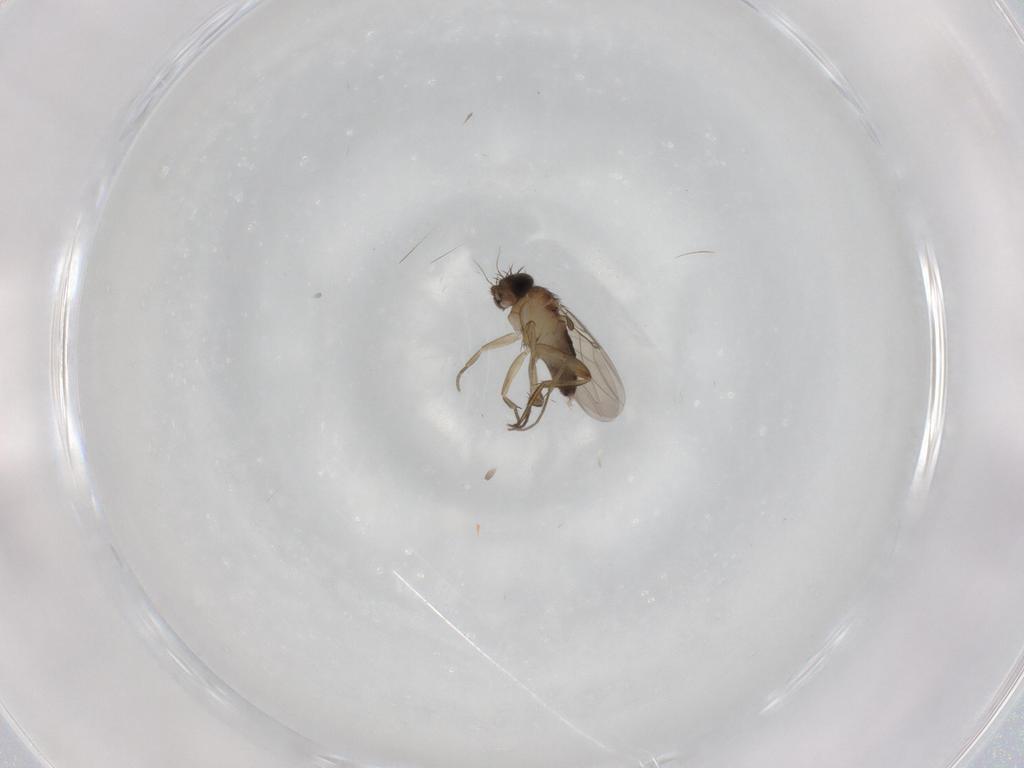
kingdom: Animalia
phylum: Arthropoda
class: Insecta
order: Diptera
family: Phoridae
